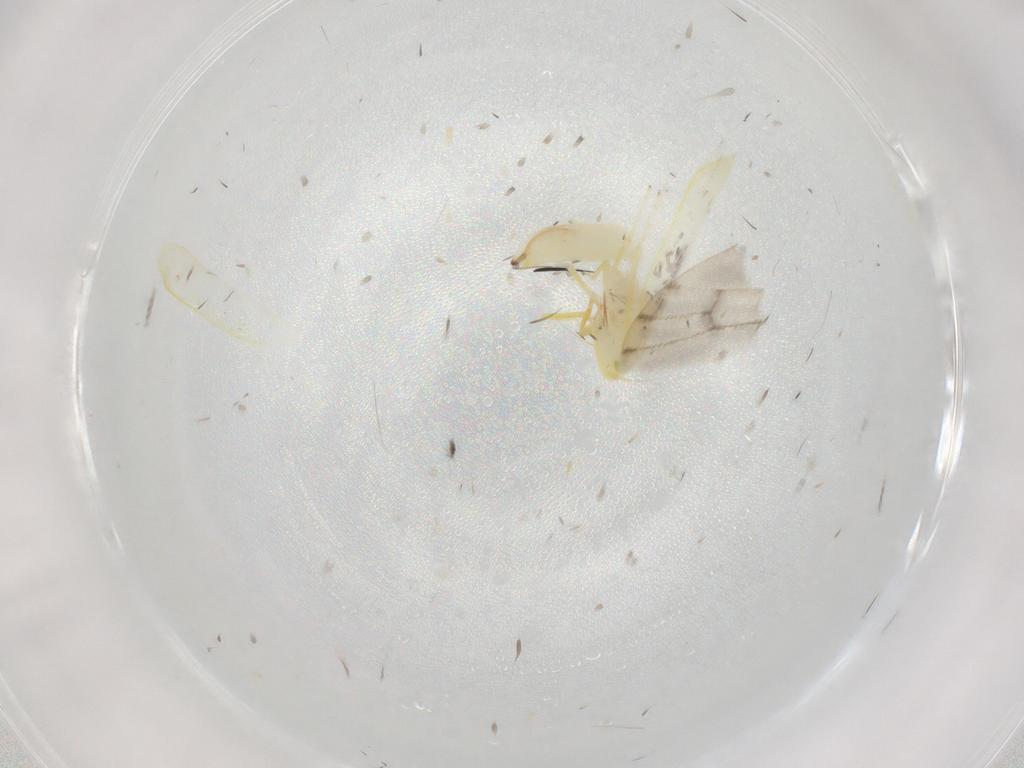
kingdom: Animalia
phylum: Arthropoda
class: Insecta
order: Hemiptera
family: Cicadellidae
